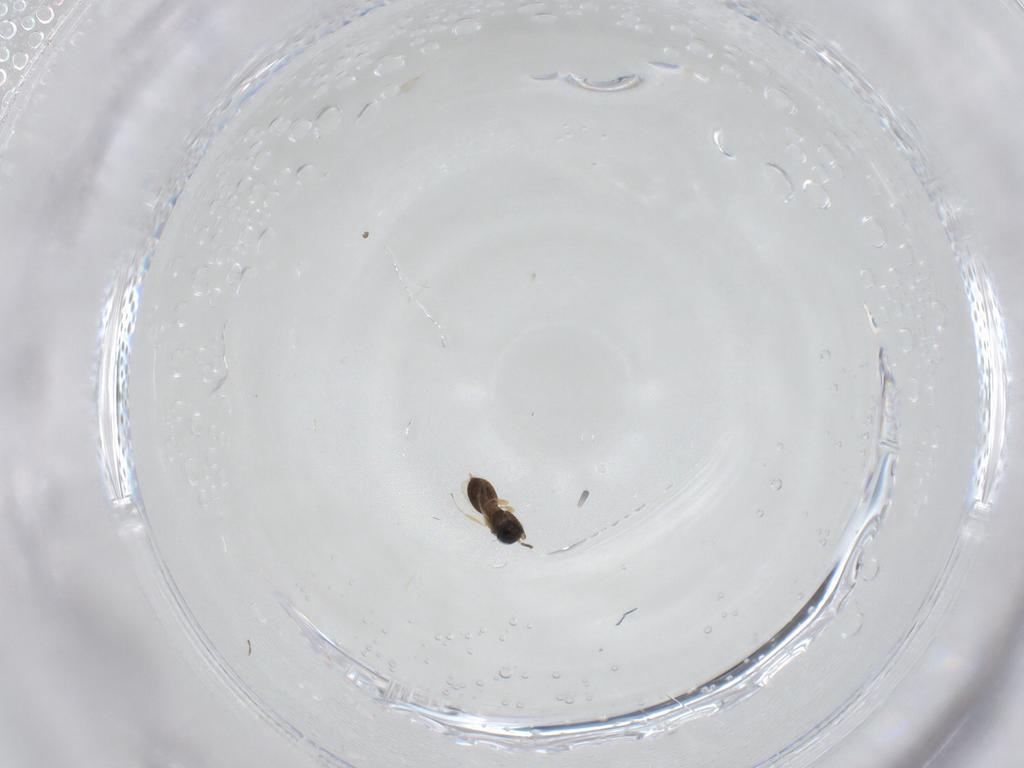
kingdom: Animalia
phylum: Arthropoda
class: Insecta
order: Hymenoptera
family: Scelionidae
